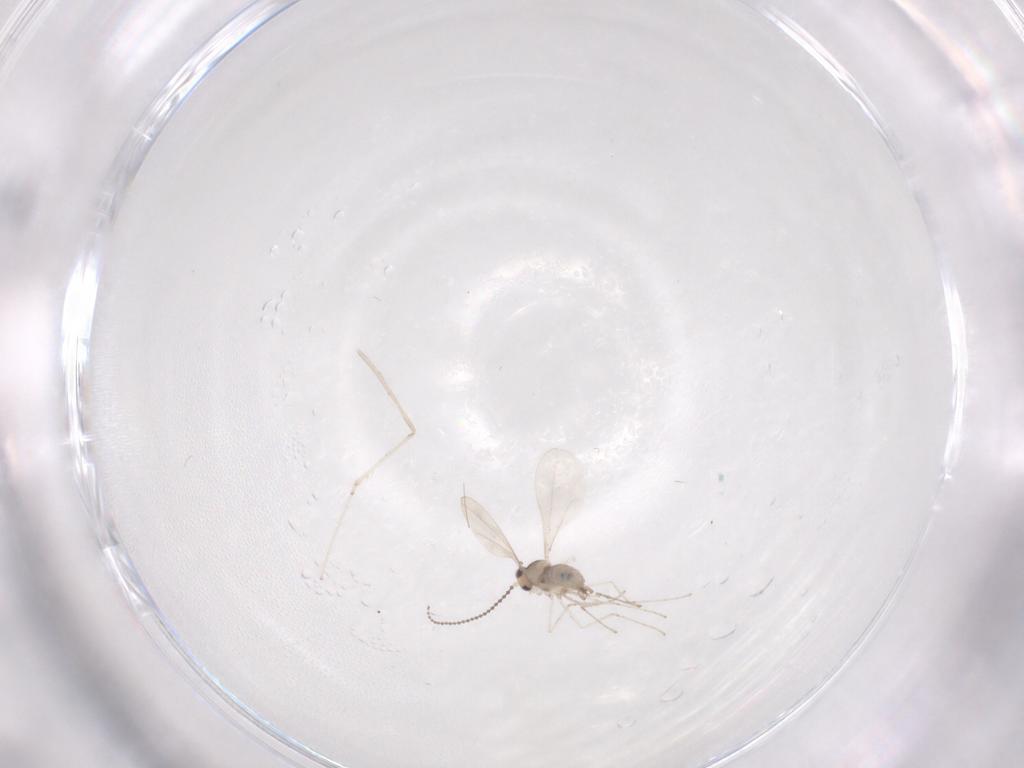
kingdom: Animalia
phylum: Arthropoda
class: Insecta
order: Diptera
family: Cecidomyiidae
